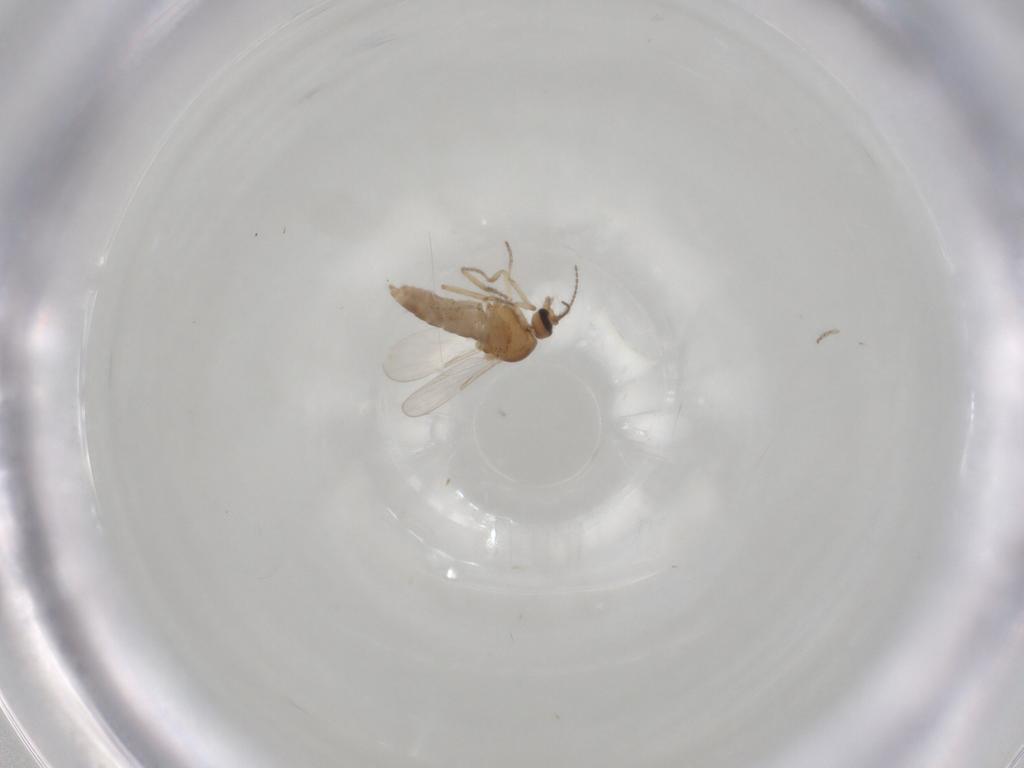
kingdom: Animalia
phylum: Arthropoda
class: Insecta
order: Diptera
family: Ceratopogonidae
